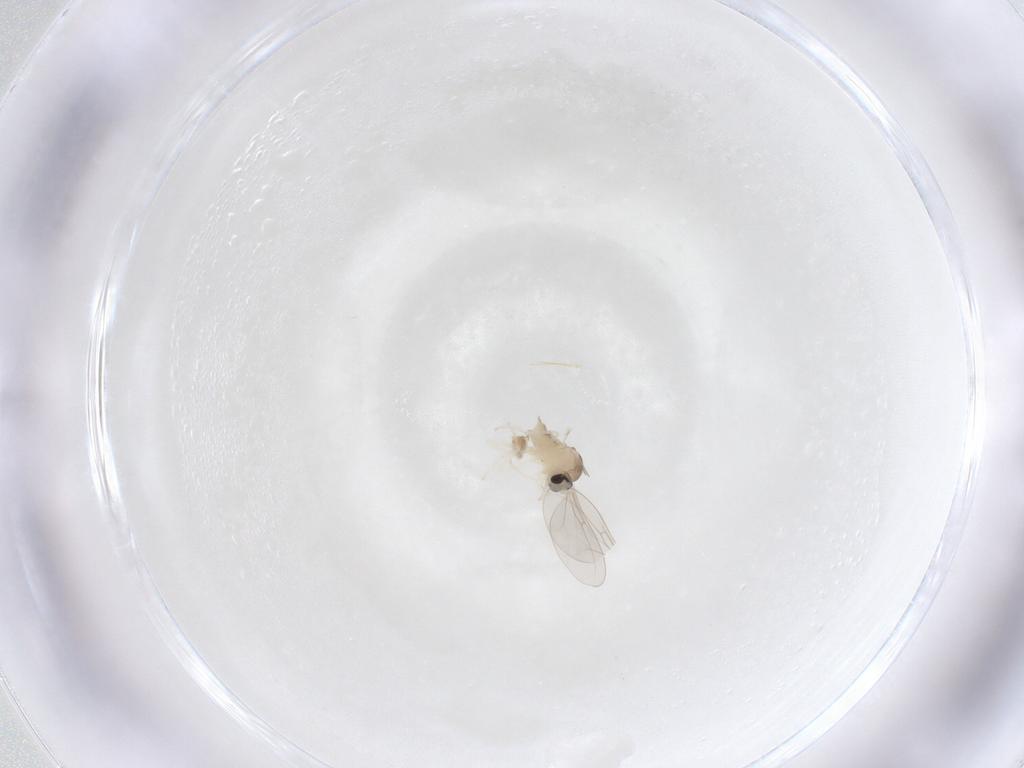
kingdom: Animalia
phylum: Arthropoda
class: Insecta
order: Diptera
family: Cecidomyiidae
